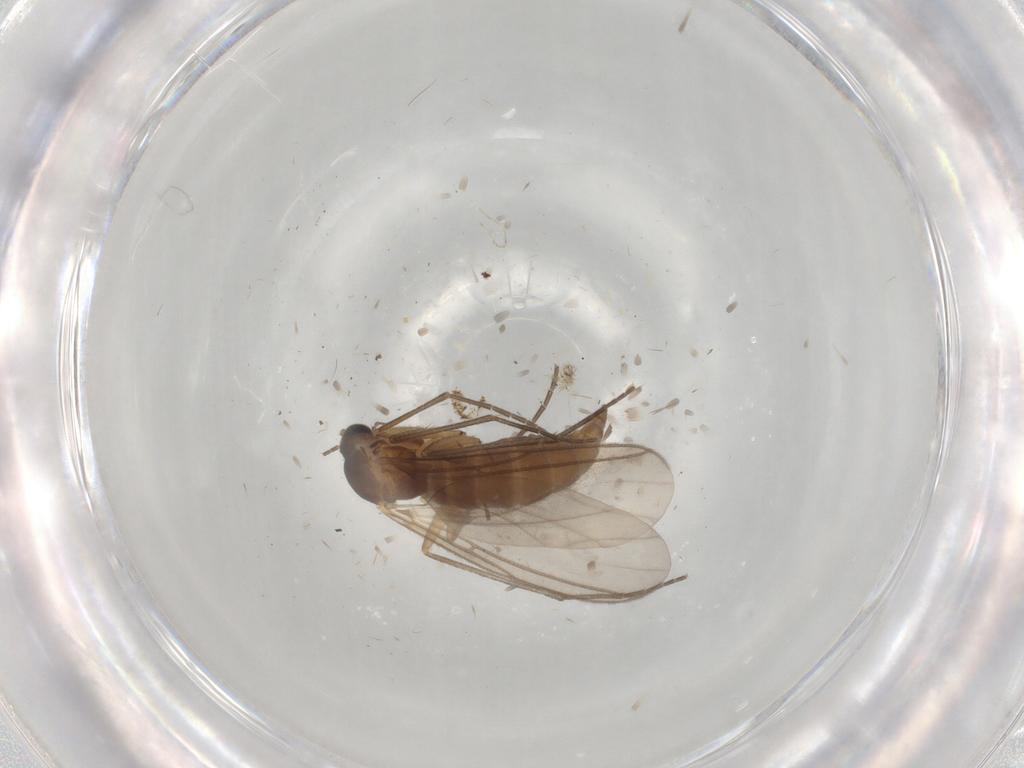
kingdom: Animalia
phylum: Arthropoda
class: Insecta
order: Diptera
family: Sciaridae
